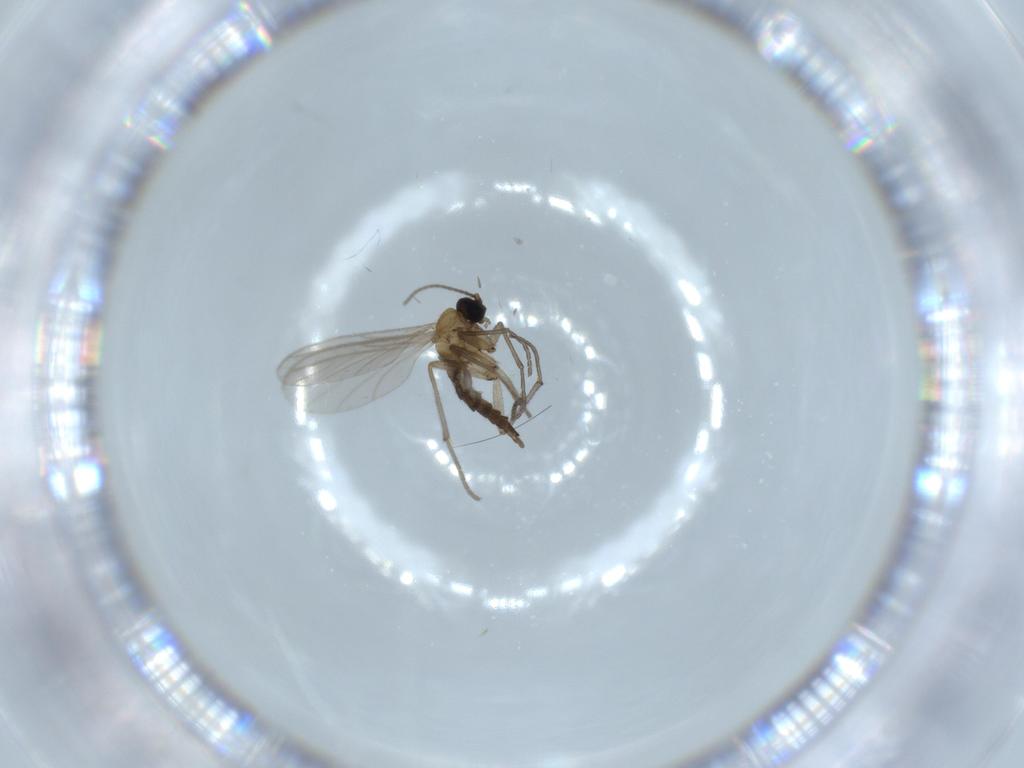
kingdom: Animalia
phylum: Arthropoda
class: Insecta
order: Diptera
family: Sciaridae
